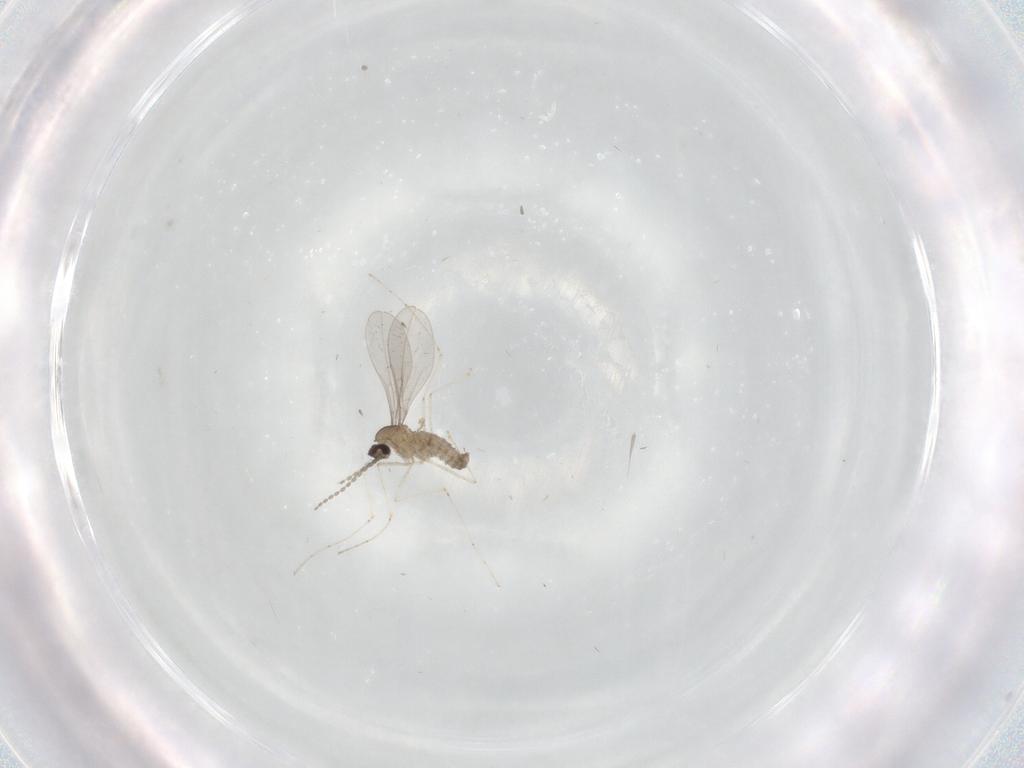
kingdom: Animalia
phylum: Arthropoda
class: Insecta
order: Diptera
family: Cecidomyiidae
